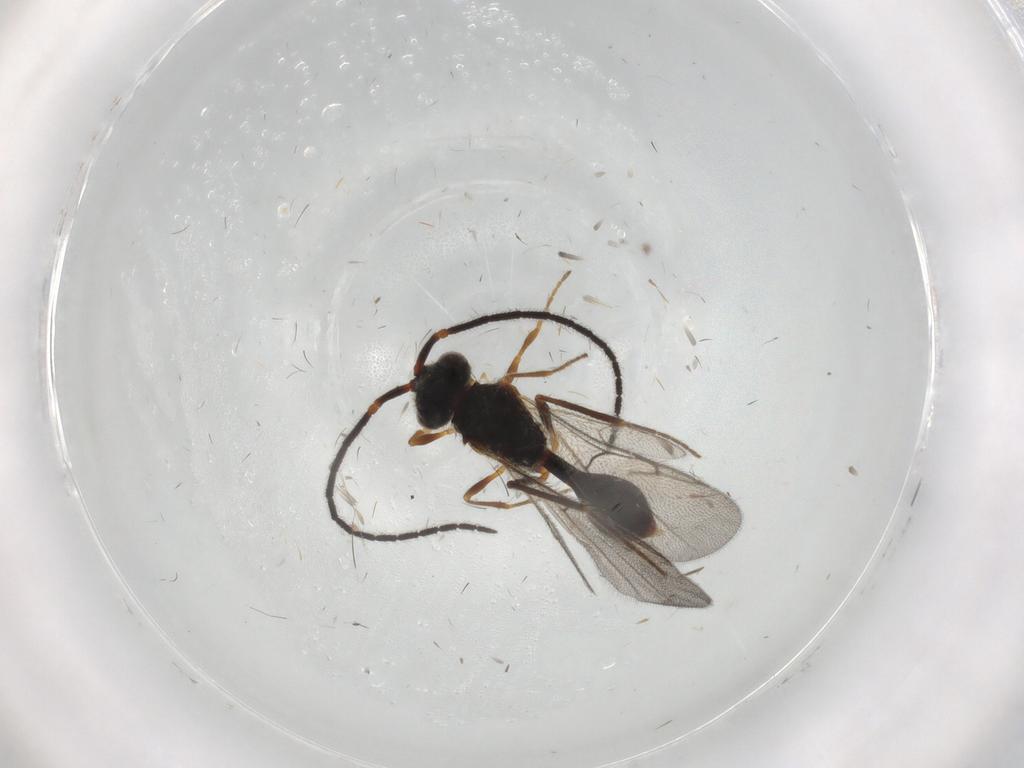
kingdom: Animalia
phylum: Arthropoda
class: Insecta
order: Hymenoptera
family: Diapriidae
